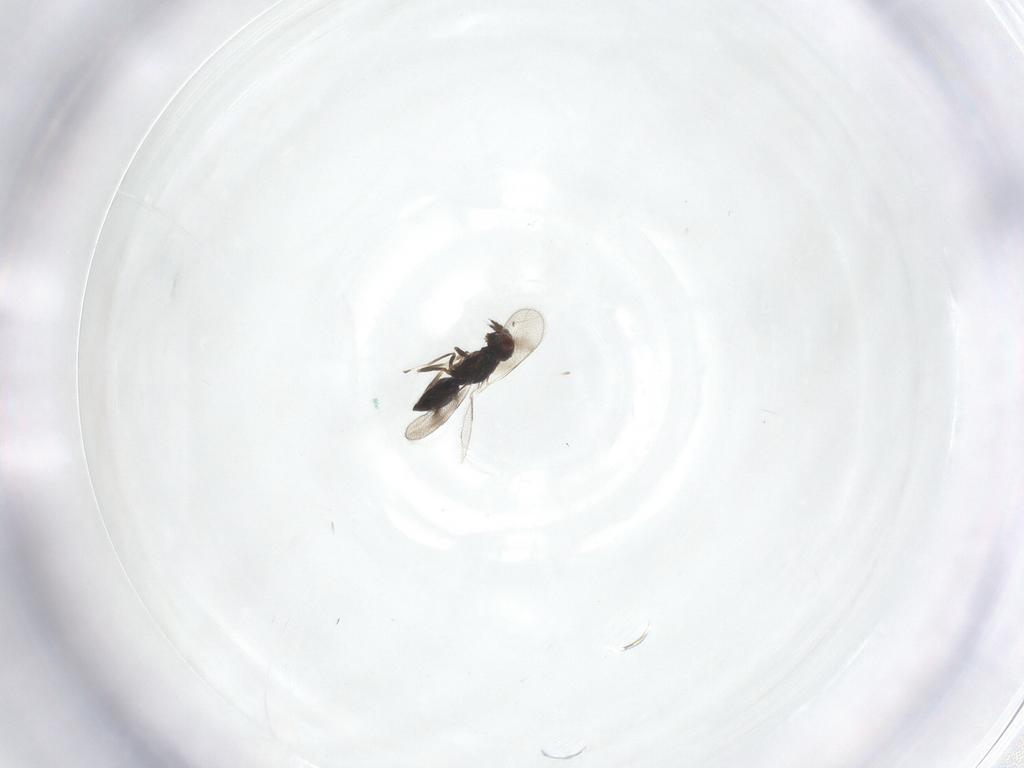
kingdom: Animalia
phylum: Arthropoda
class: Insecta
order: Hymenoptera
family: Eulophidae
